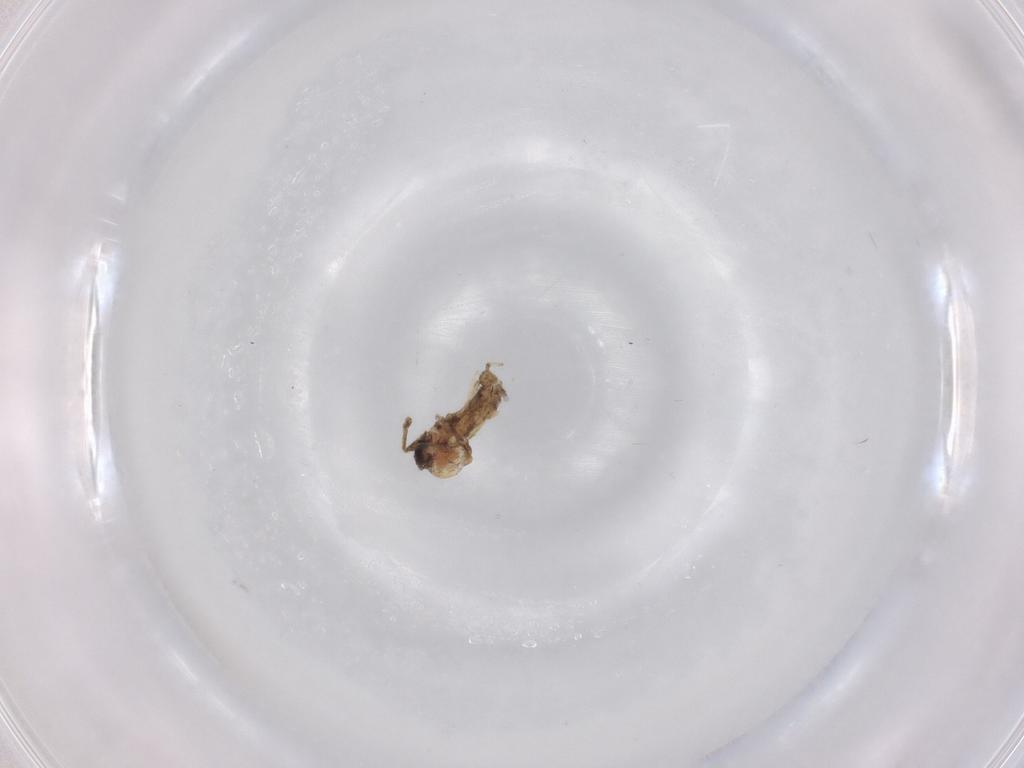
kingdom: Animalia
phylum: Arthropoda
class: Insecta
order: Diptera
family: Chironomidae
